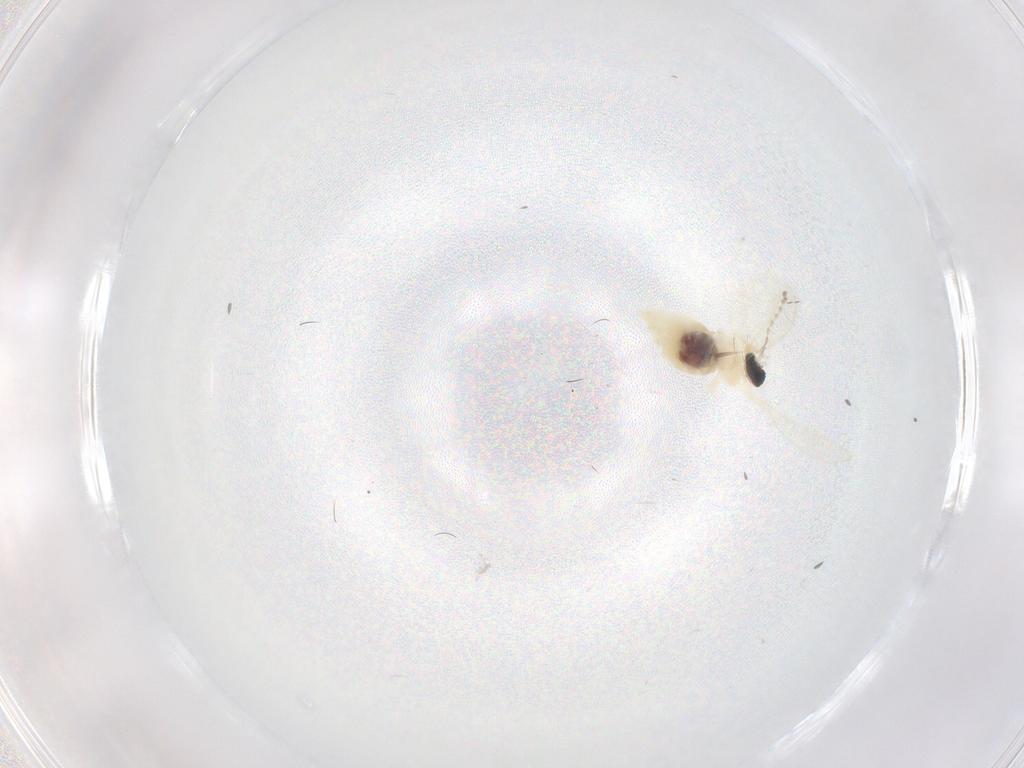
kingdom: Animalia
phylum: Arthropoda
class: Insecta
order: Diptera
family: Cecidomyiidae
